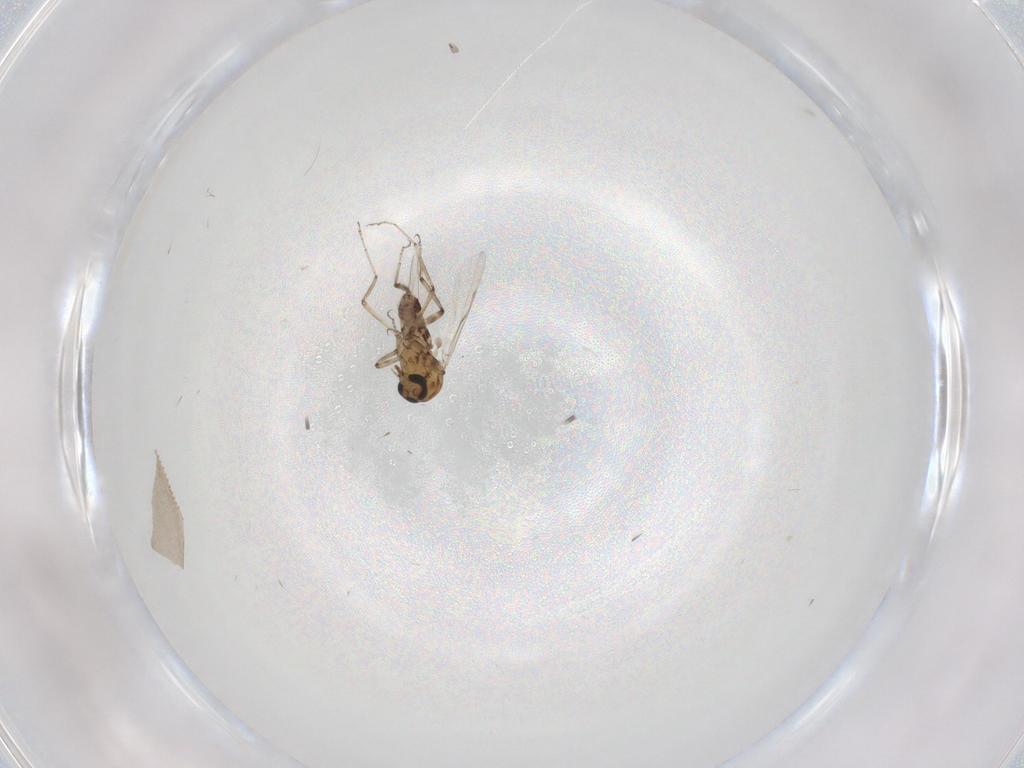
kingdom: Animalia
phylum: Arthropoda
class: Insecta
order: Diptera
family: Ceratopogonidae
